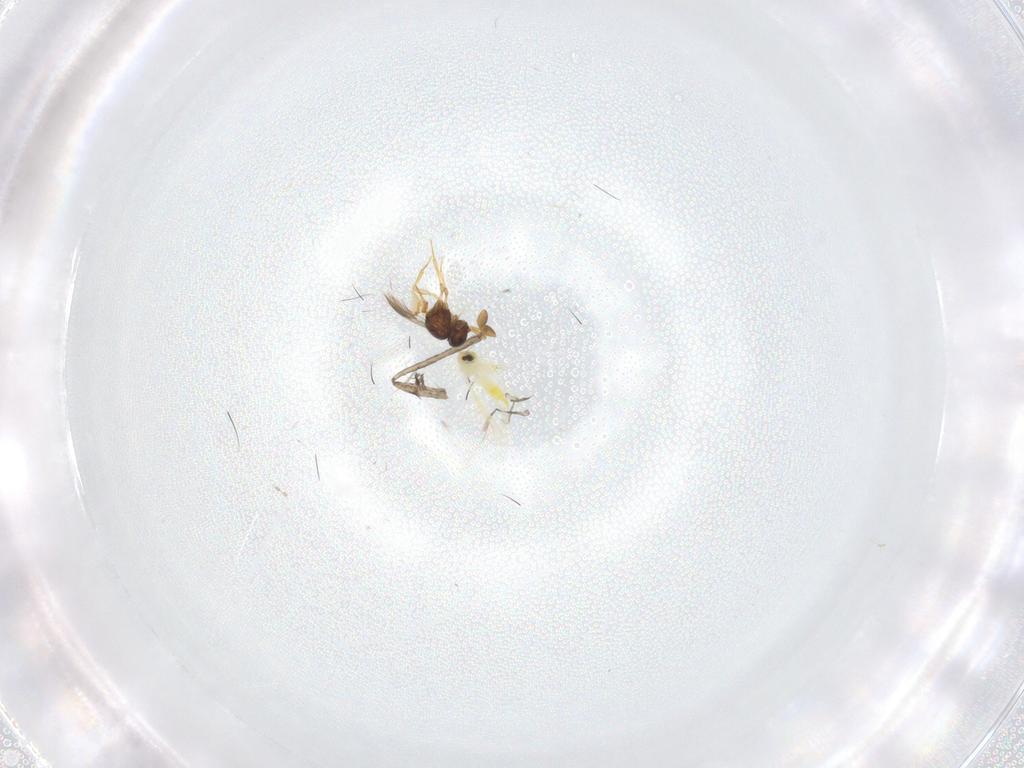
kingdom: Animalia
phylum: Arthropoda
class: Insecta
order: Hemiptera
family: Aleyrodidae
